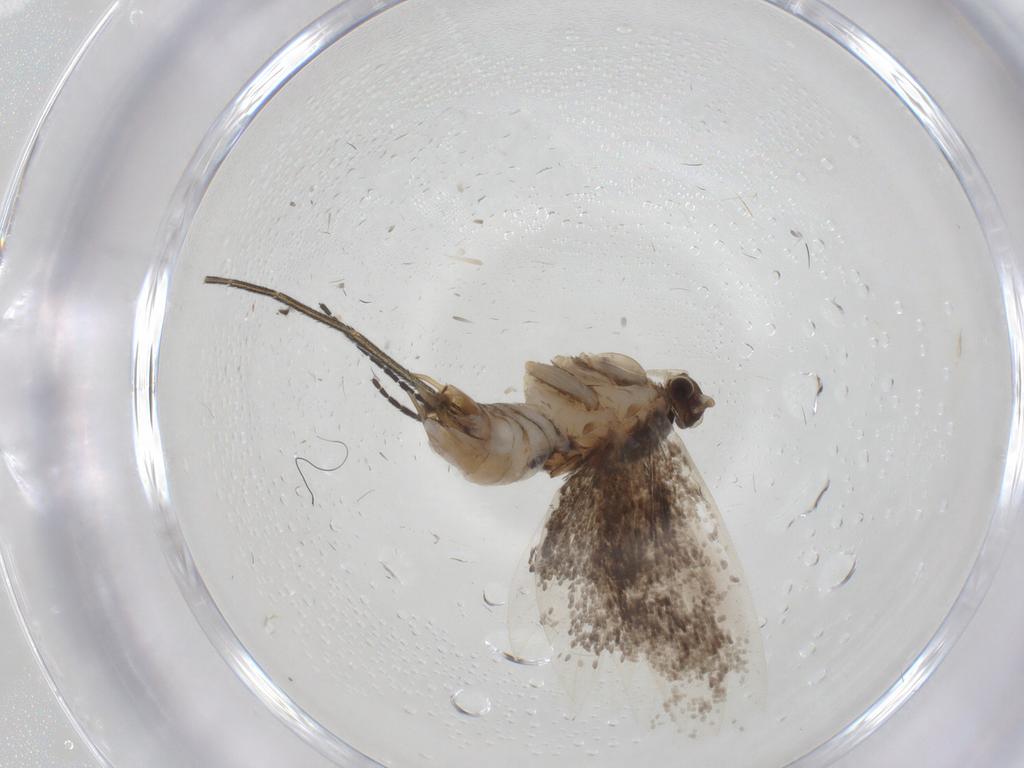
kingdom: Animalia
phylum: Arthropoda
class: Insecta
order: Lepidoptera
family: Tineidae
